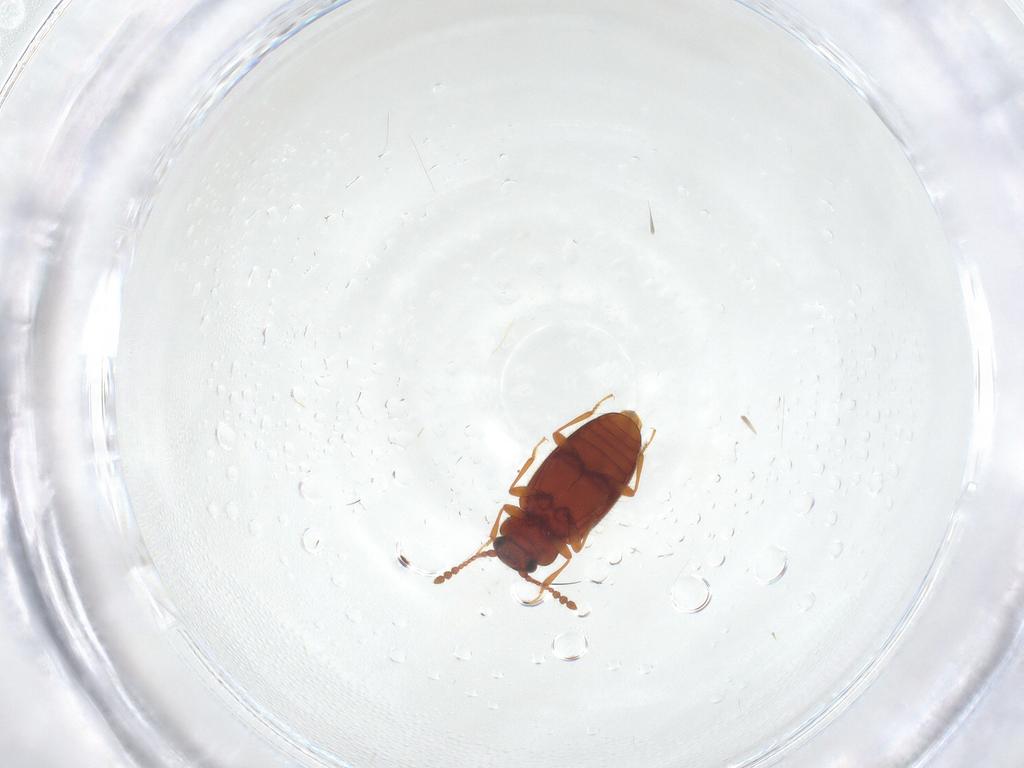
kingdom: Animalia
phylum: Arthropoda
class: Insecta
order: Coleoptera
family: Cryptophagidae
